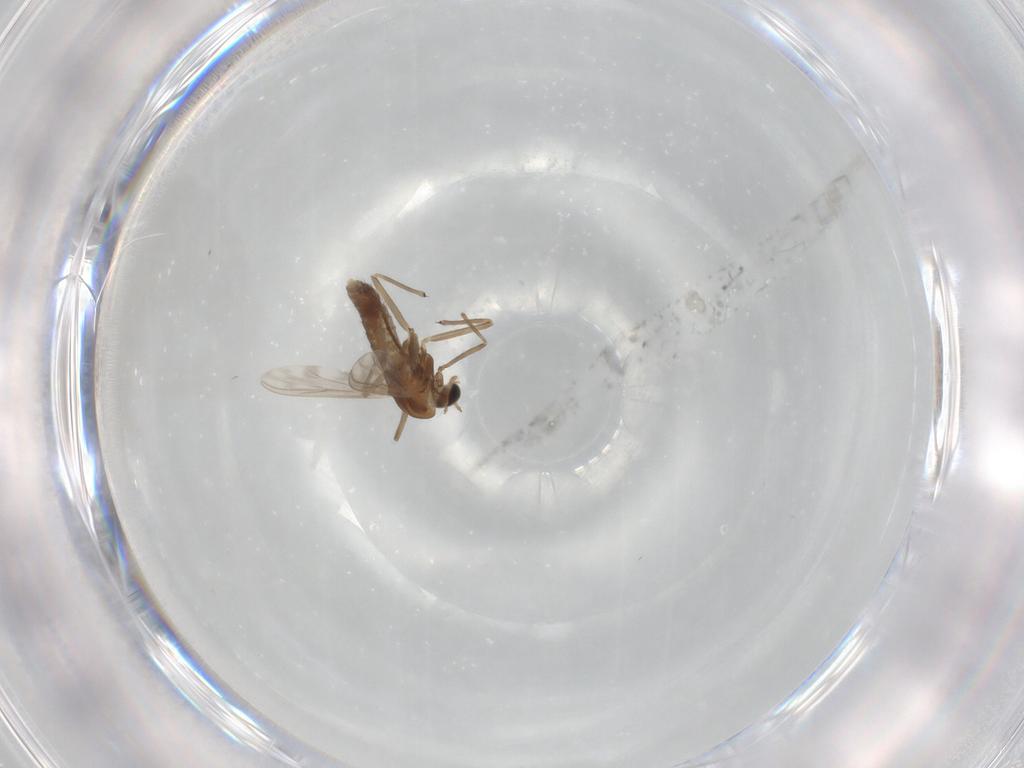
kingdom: Animalia
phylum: Arthropoda
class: Insecta
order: Diptera
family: Chironomidae
